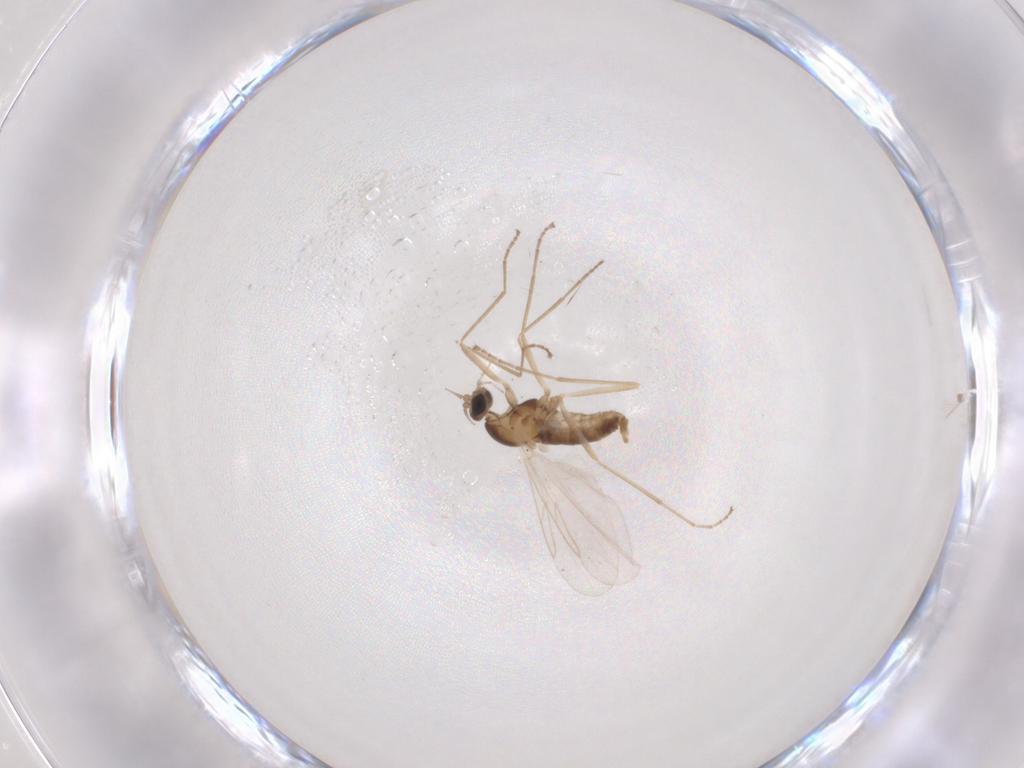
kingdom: Animalia
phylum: Arthropoda
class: Insecta
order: Diptera
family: Cecidomyiidae
